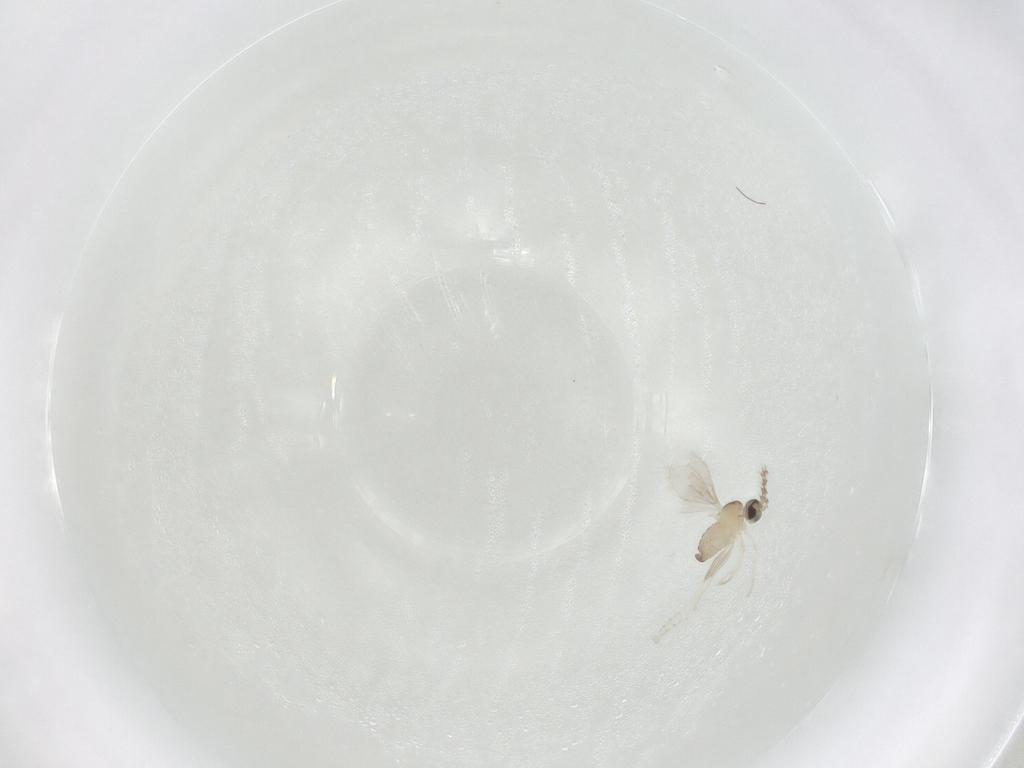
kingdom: Animalia
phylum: Arthropoda
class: Insecta
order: Diptera
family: Cecidomyiidae
